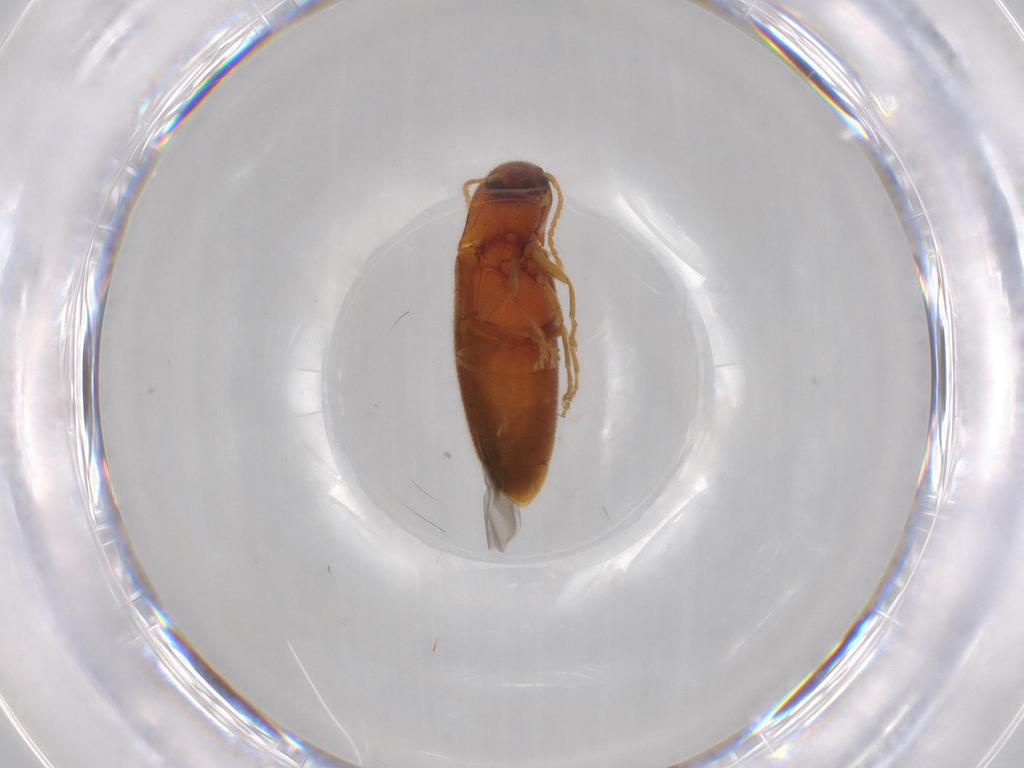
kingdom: Animalia
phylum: Arthropoda
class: Insecta
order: Coleoptera
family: Elateridae
